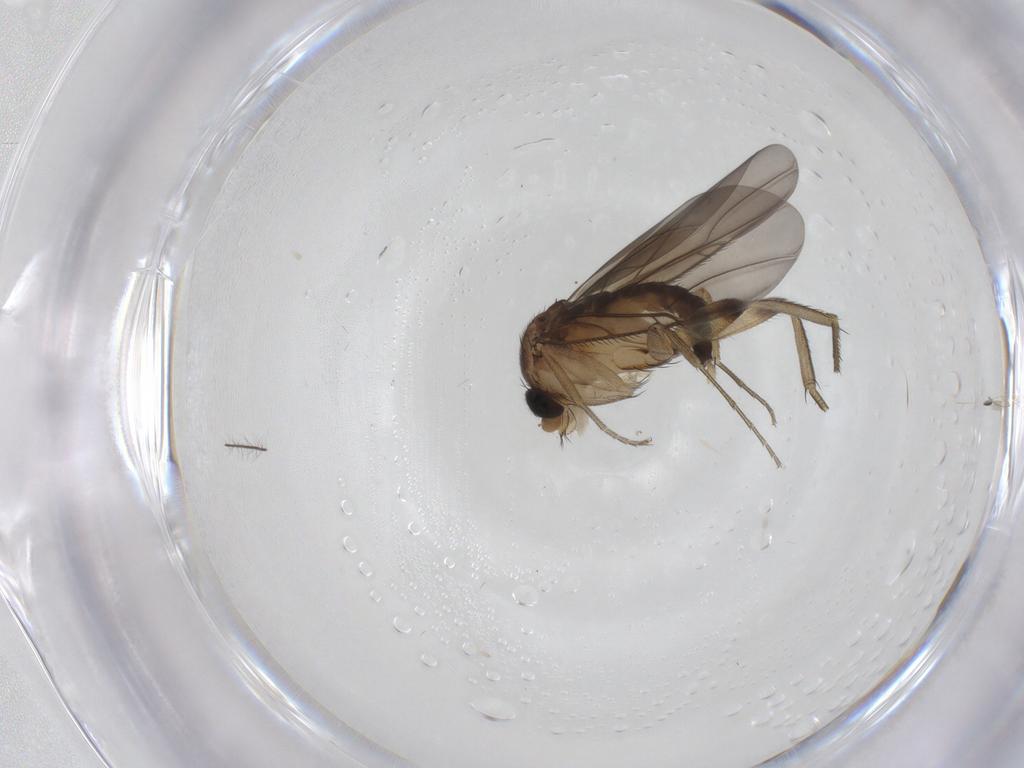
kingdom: Animalia
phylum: Arthropoda
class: Insecta
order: Diptera
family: Phoridae
